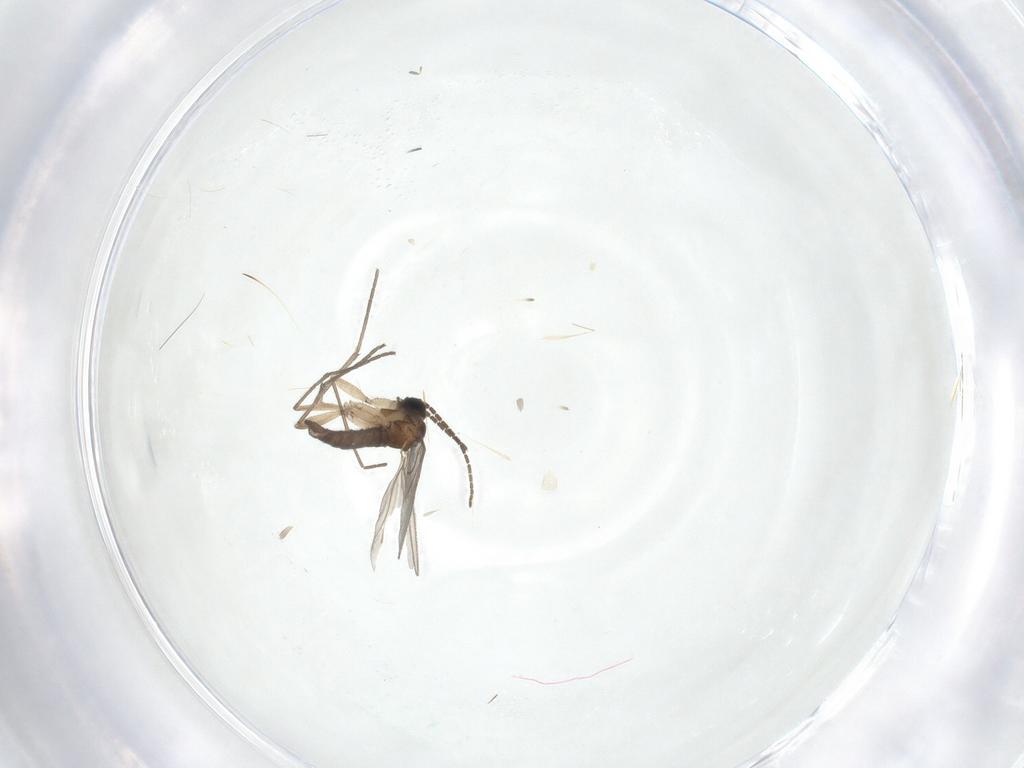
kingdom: Animalia
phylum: Arthropoda
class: Insecta
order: Diptera
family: Sciaridae
